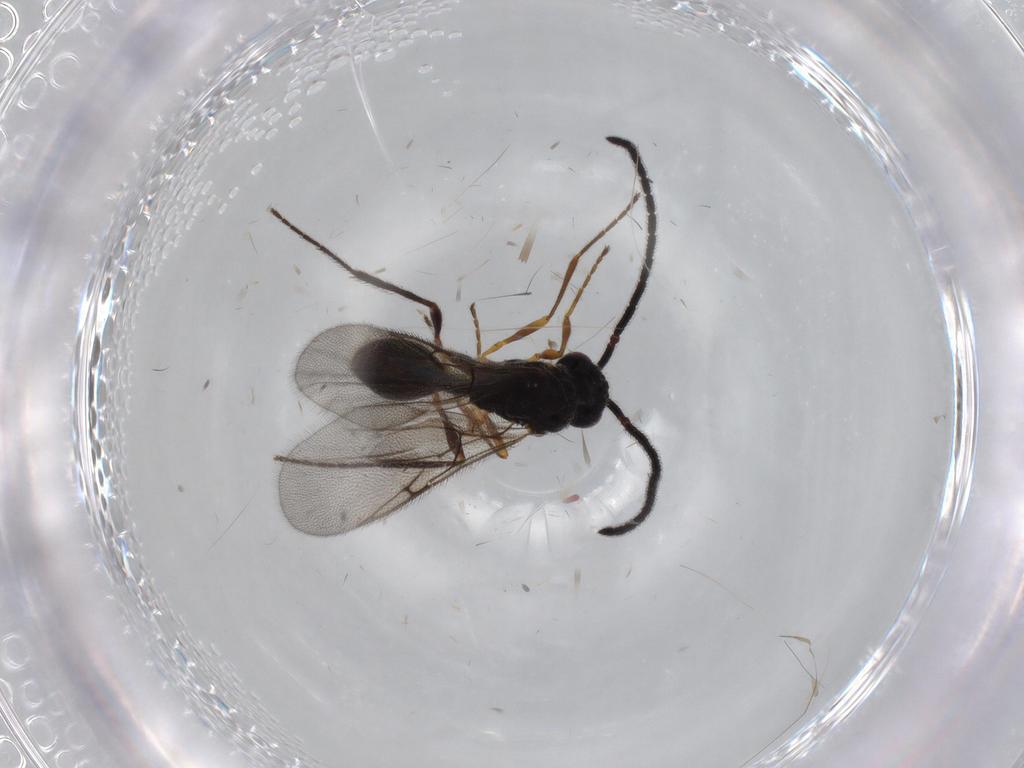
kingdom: Animalia
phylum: Arthropoda
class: Insecta
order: Hymenoptera
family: Diapriidae
